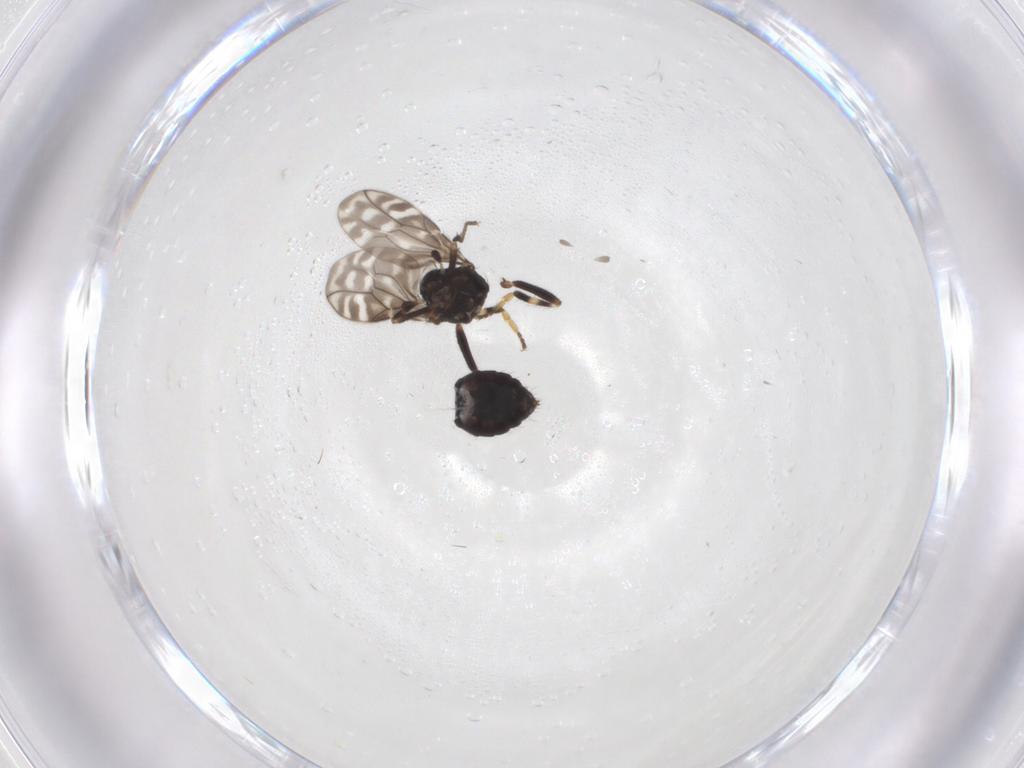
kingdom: Animalia
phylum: Arthropoda
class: Insecta
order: Diptera
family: Sphaeroceridae
